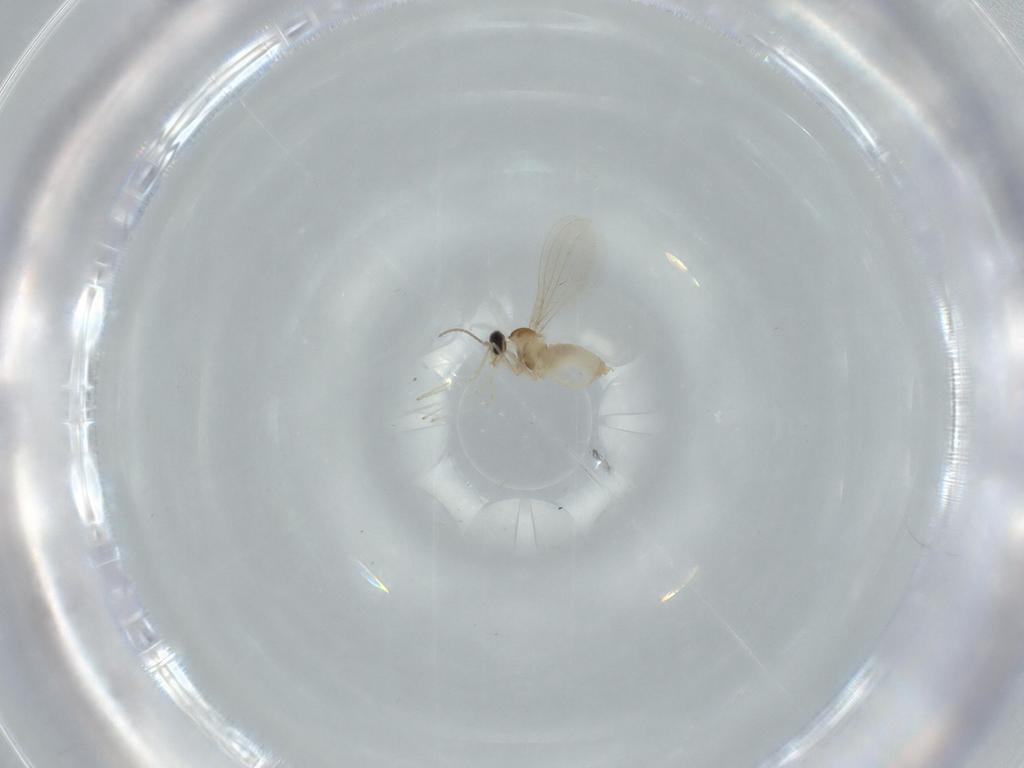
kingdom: Animalia
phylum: Arthropoda
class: Insecta
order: Diptera
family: Cecidomyiidae
